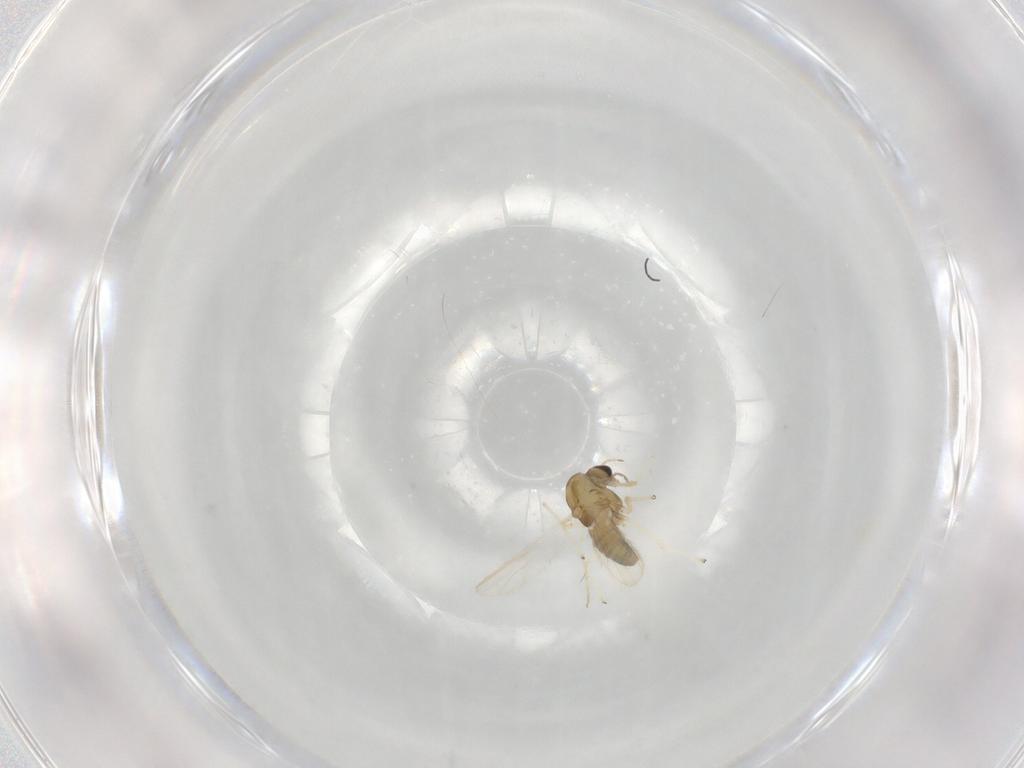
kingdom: Animalia
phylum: Arthropoda
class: Insecta
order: Diptera
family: Chironomidae
